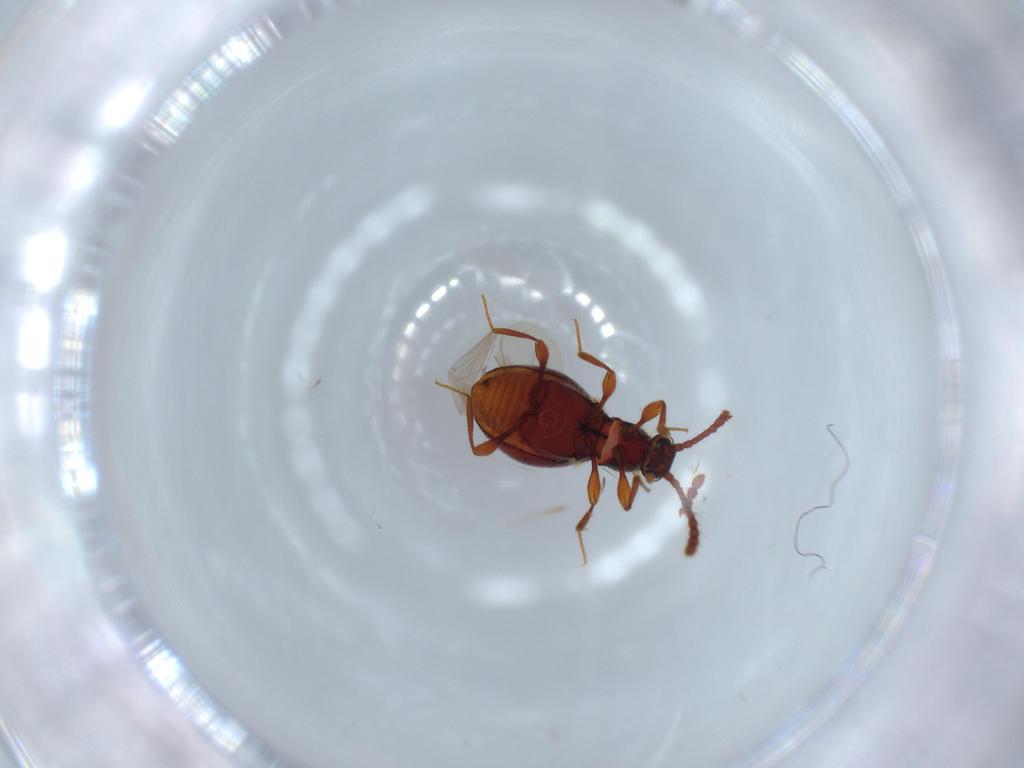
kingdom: Animalia
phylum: Arthropoda
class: Insecta
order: Coleoptera
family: Staphylinidae
